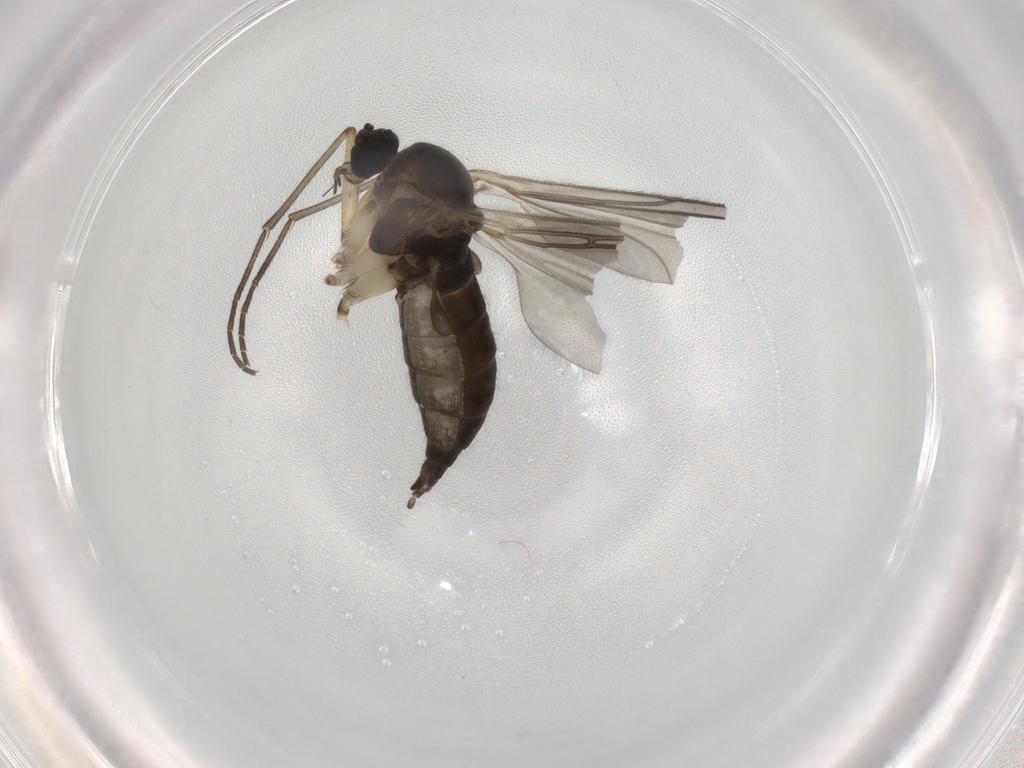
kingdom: Animalia
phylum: Arthropoda
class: Insecta
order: Diptera
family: Sciaridae
